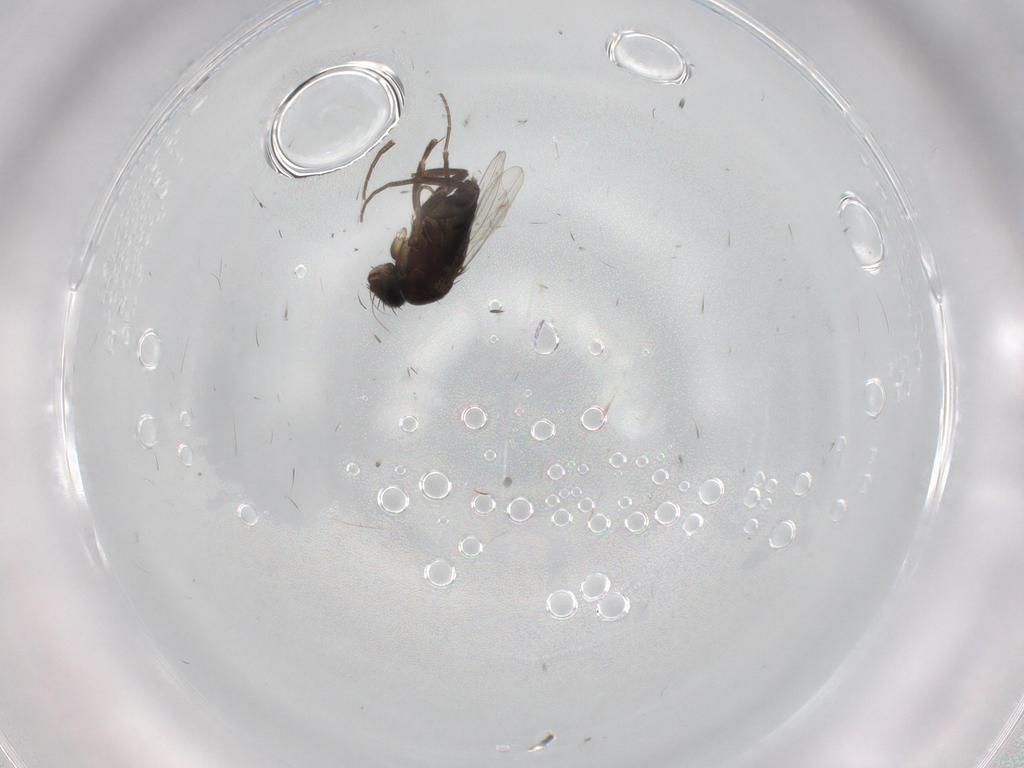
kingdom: Animalia
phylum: Arthropoda
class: Insecta
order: Diptera
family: Phoridae
